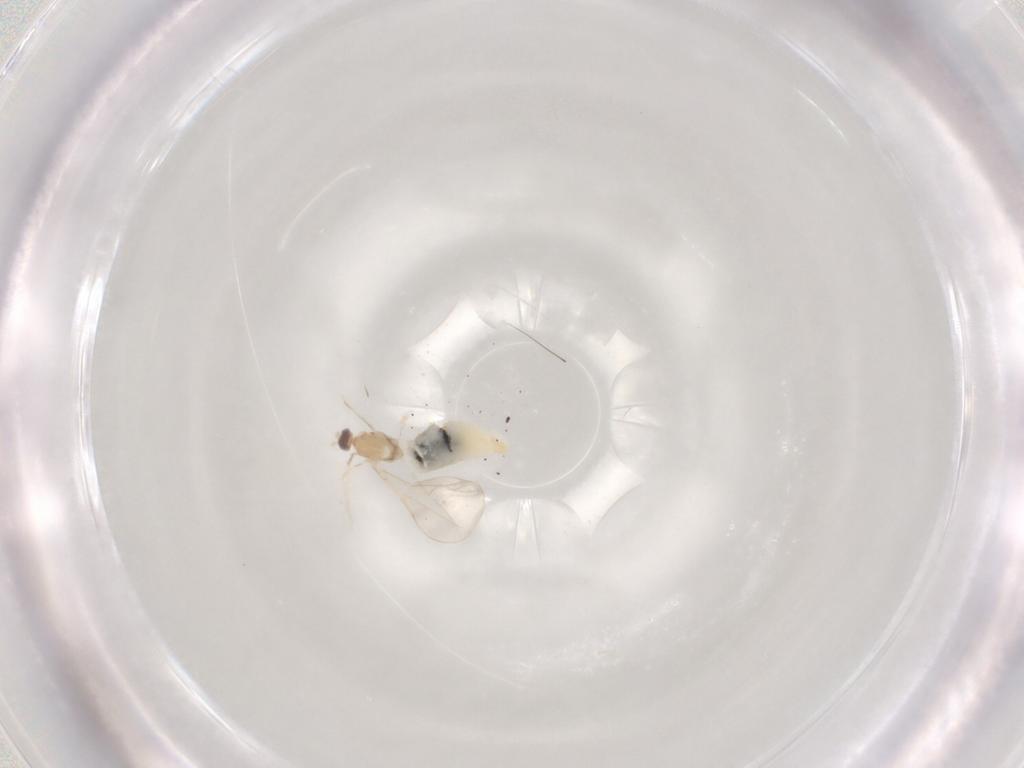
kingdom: Animalia
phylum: Arthropoda
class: Insecta
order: Diptera
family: Cecidomyiidae
